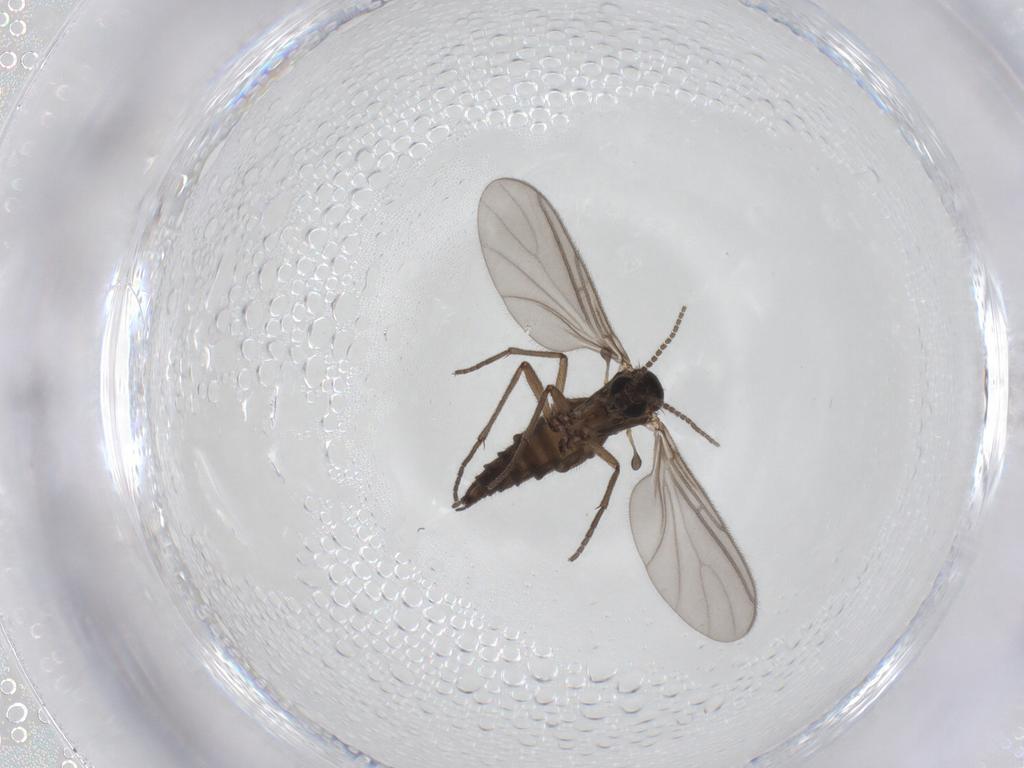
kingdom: Animalia
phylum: Arthropoda
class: Insecta
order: Diptera
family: Sciaridae
